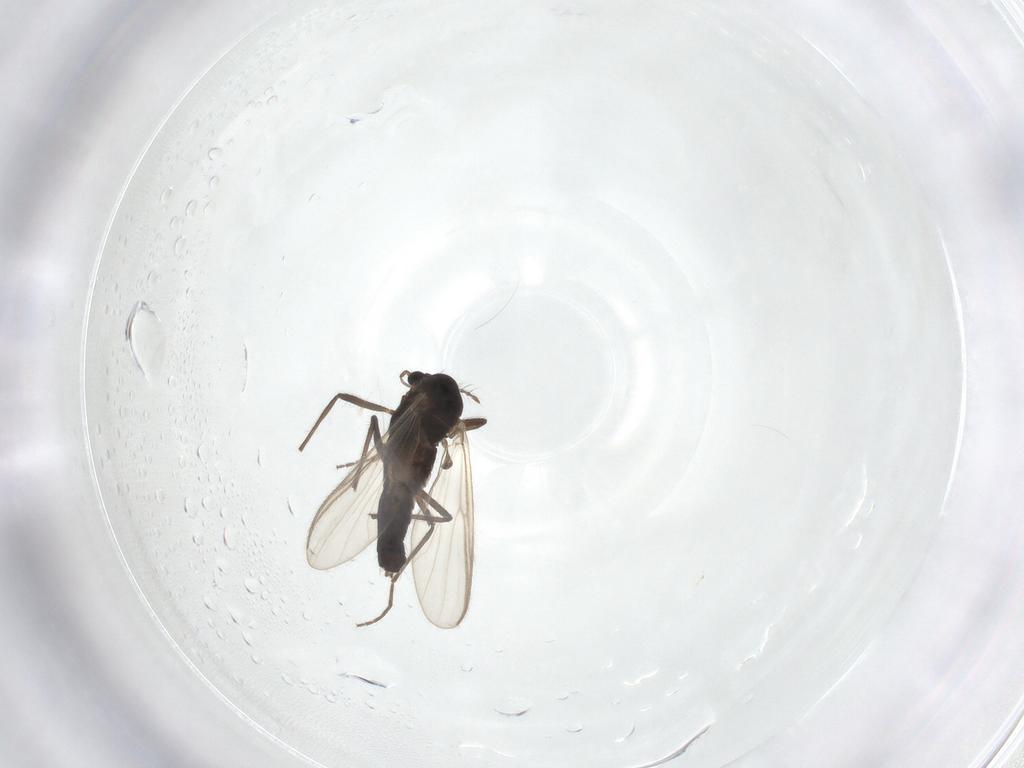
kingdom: Animalia
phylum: Arthropoda
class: Insecta
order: Diptera
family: Chironomidae
